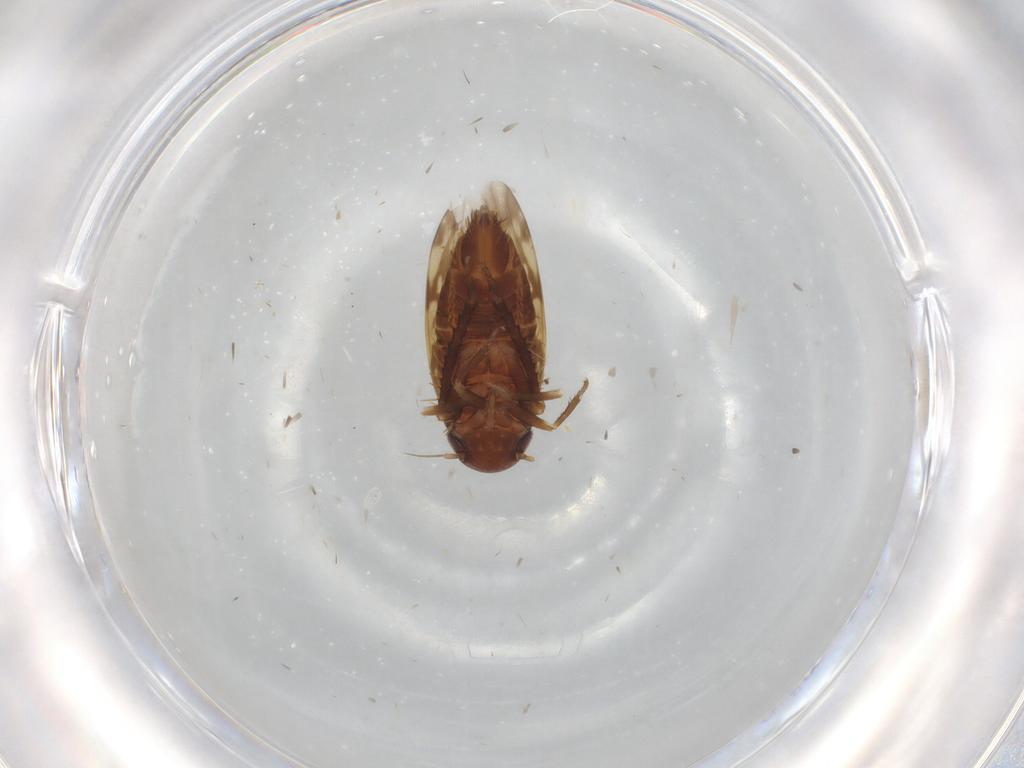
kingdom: Animalia
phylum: Arthropoda
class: Insecta
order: Hemiptera
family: Cicadellidae
